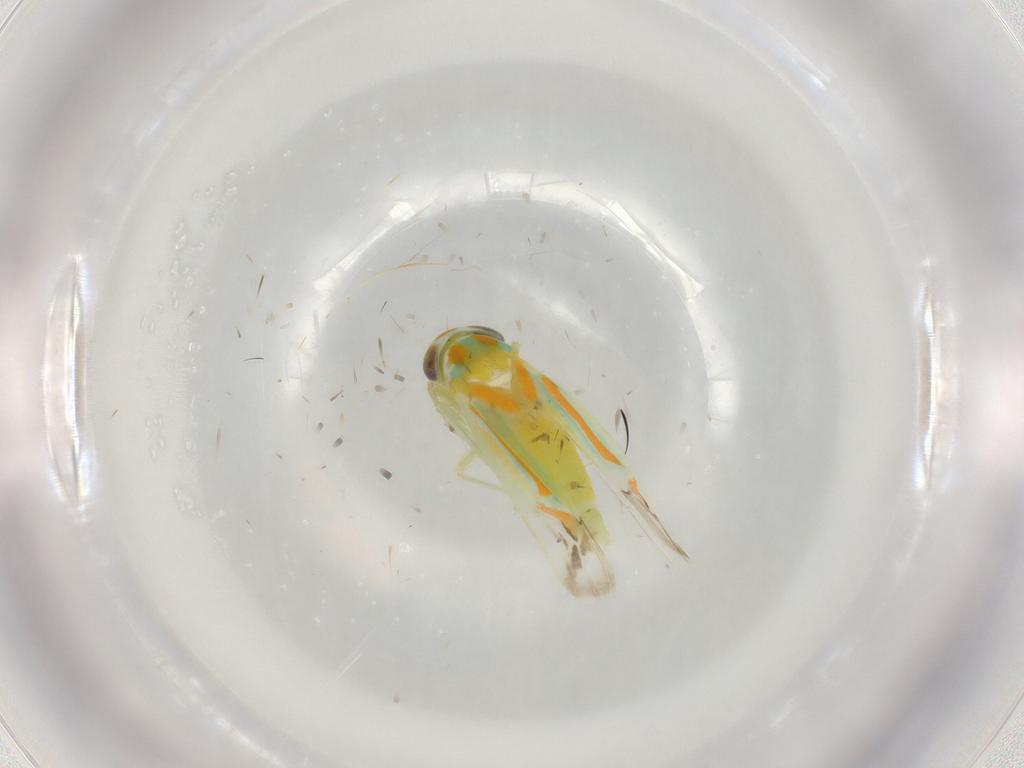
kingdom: Animalia
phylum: Arthropoda
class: Insecta
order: Hemiptera
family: Cicadellidae
